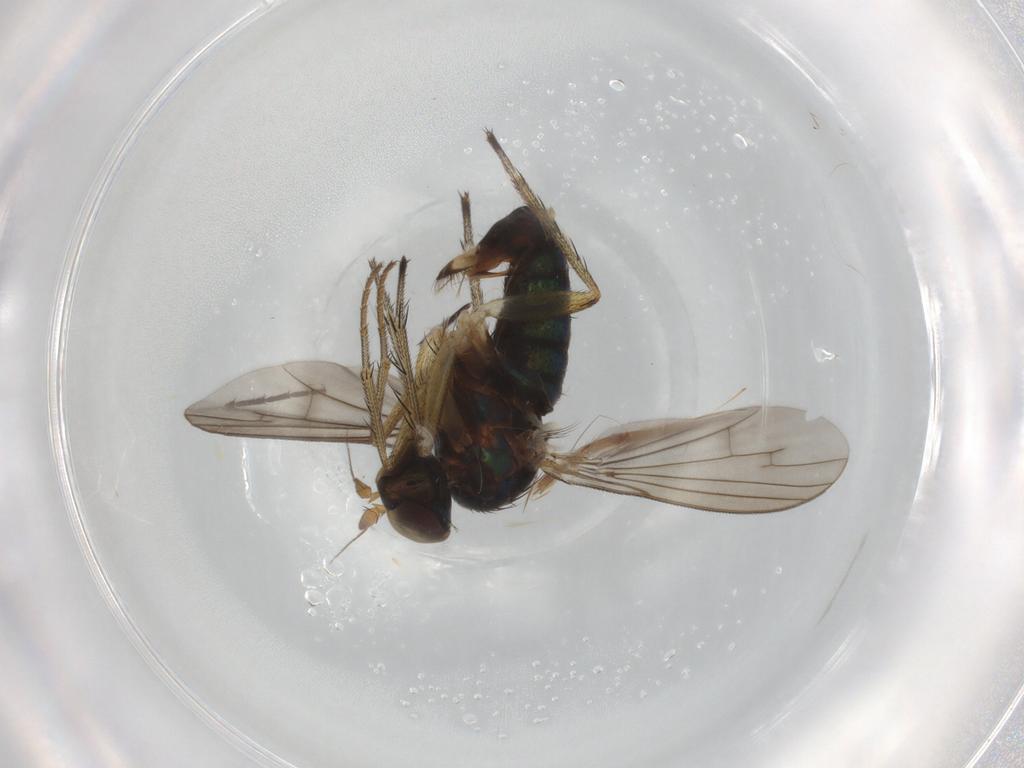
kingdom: Animalia
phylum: Arthropoda
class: Insecta
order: Diptera
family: Dolichopodidae
